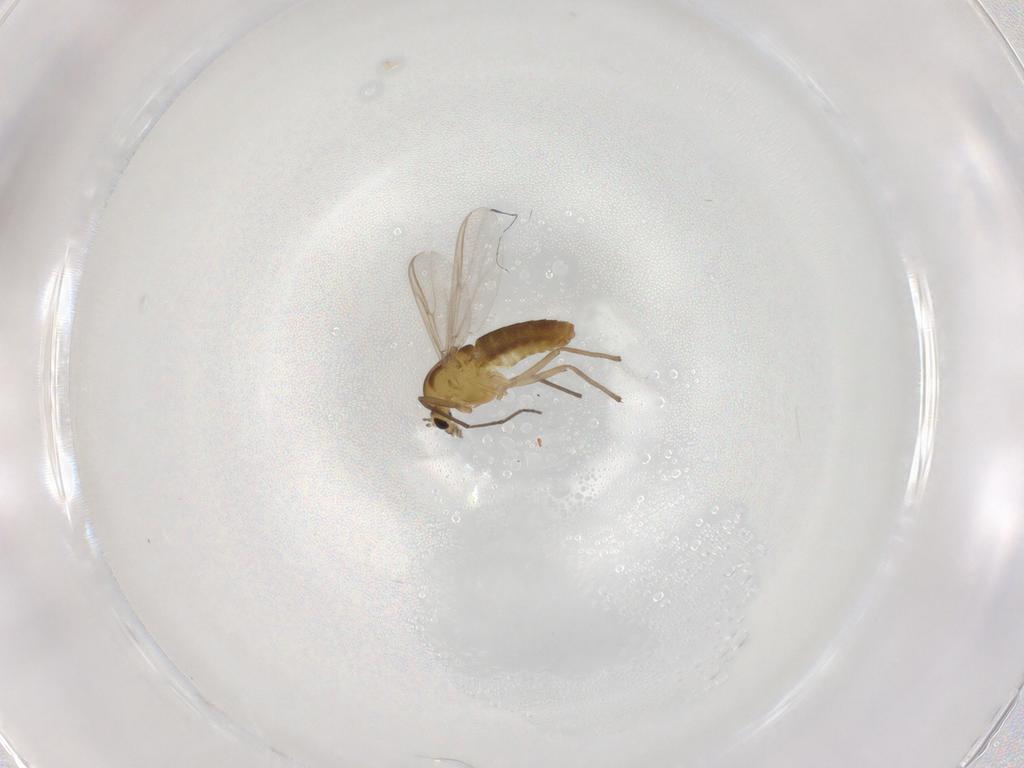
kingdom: Animalia
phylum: Arthropoda
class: Insecta
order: Diptera
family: Chironomidae
